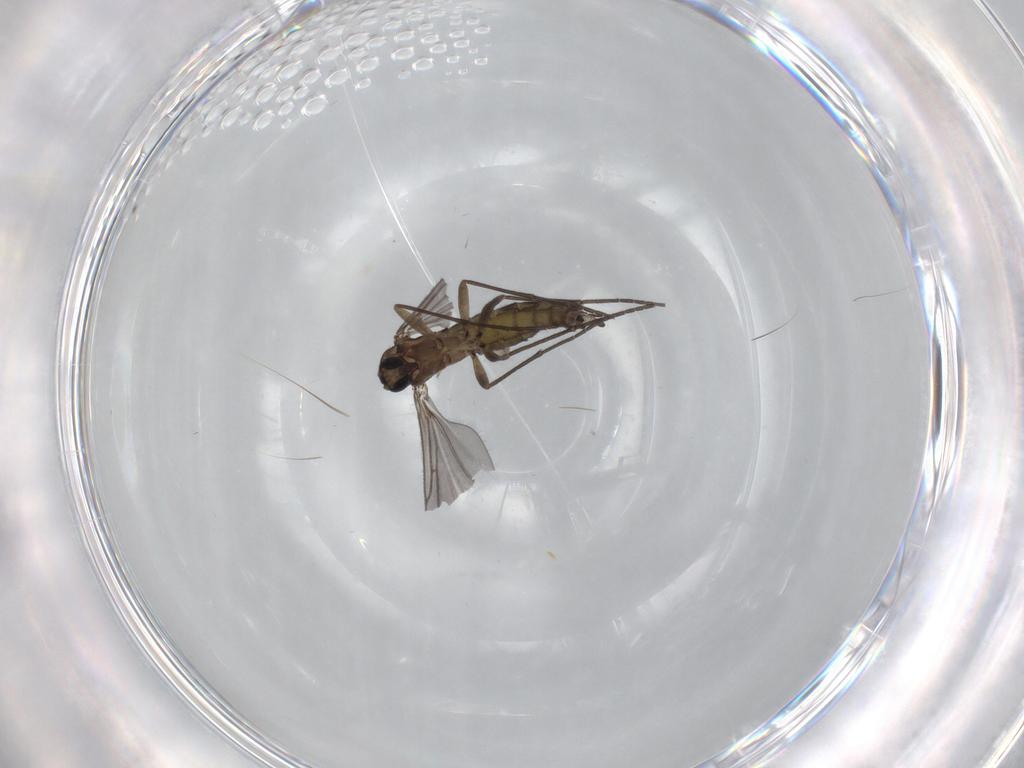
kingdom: Animalia
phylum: Arthropoda
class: Insecta
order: Diptera
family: Sciaridae
